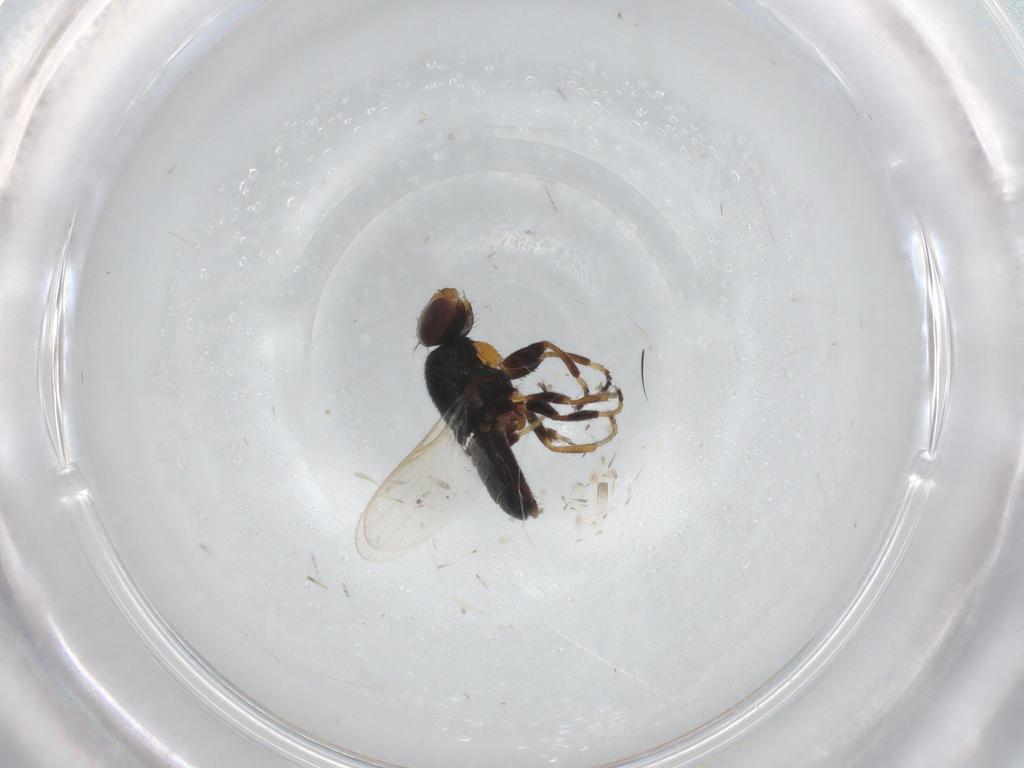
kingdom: Animalia
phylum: Arthropoda
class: Insecta
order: Diptera
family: Chloropidae
